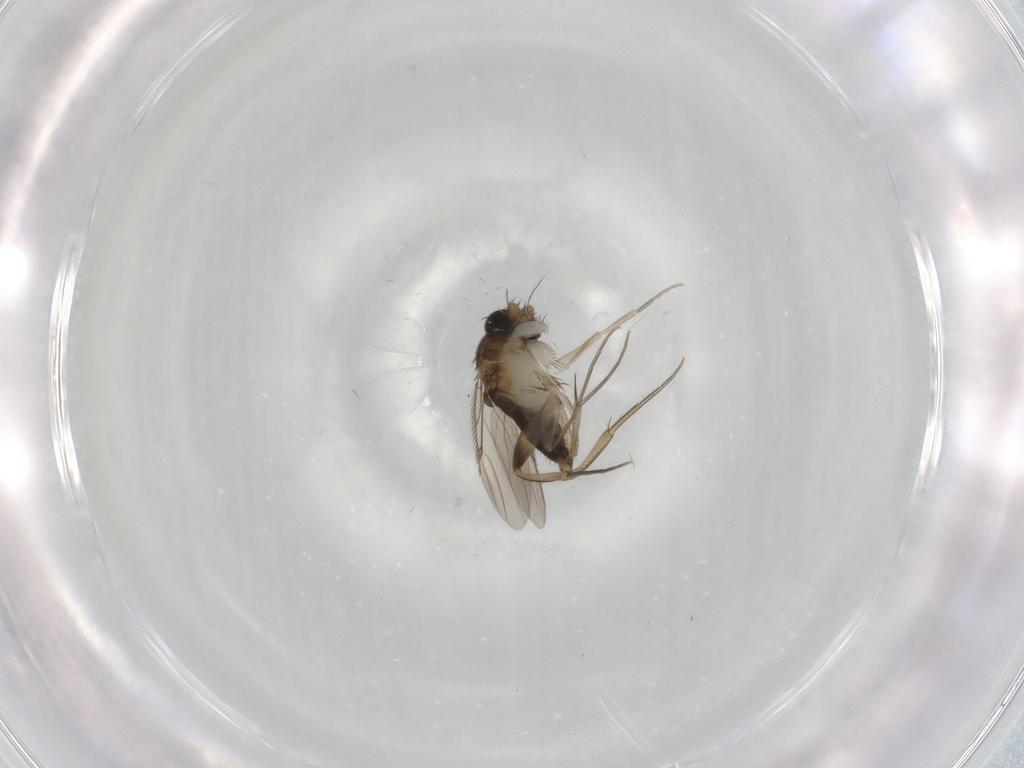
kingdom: Animalia
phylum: Arthropoda
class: Insecta
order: Diptera
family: Phoridae
